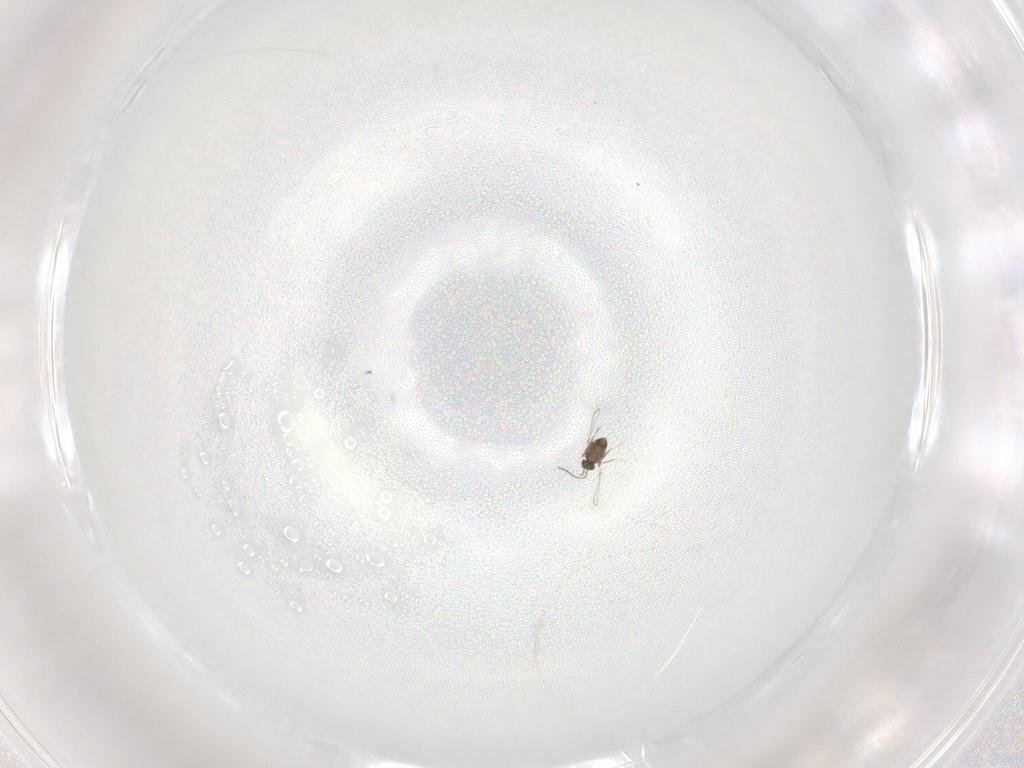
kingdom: Animalia
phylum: Arthropoda
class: Insecta
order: Hymenoptera
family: Mymaridae
